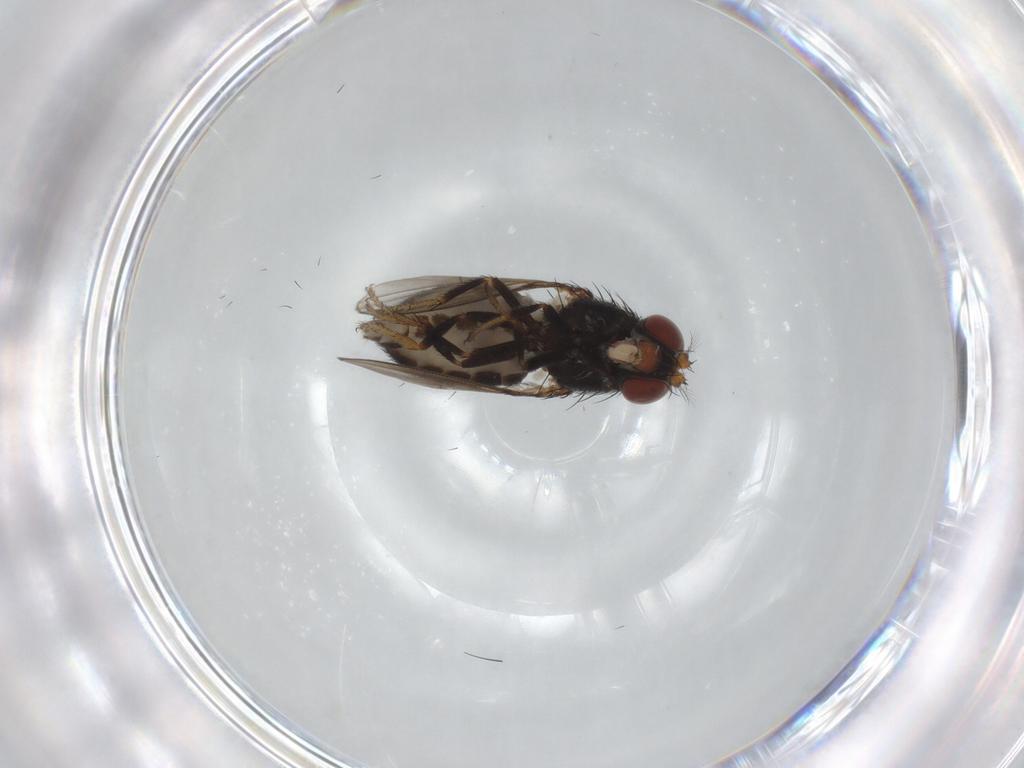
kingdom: Animalia
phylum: Arthropoda
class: Insecta
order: Diptera
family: Ephydridae
